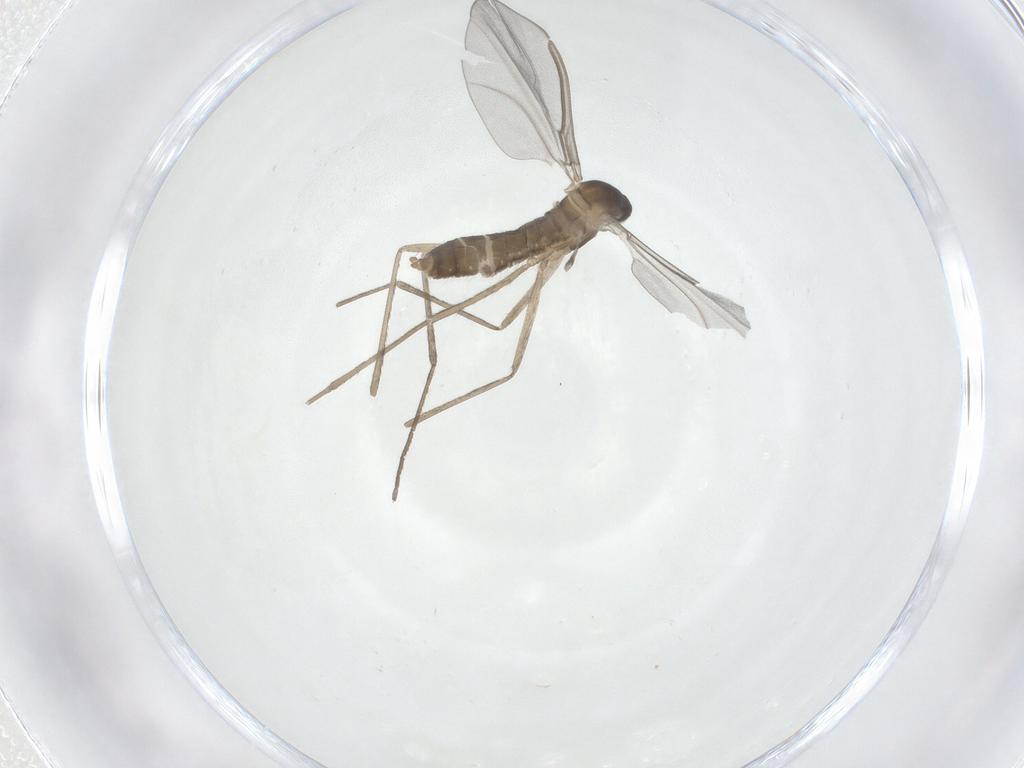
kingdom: Animalia
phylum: Arthropoda
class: Insecta
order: Diptera
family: Cecidomyiidae
